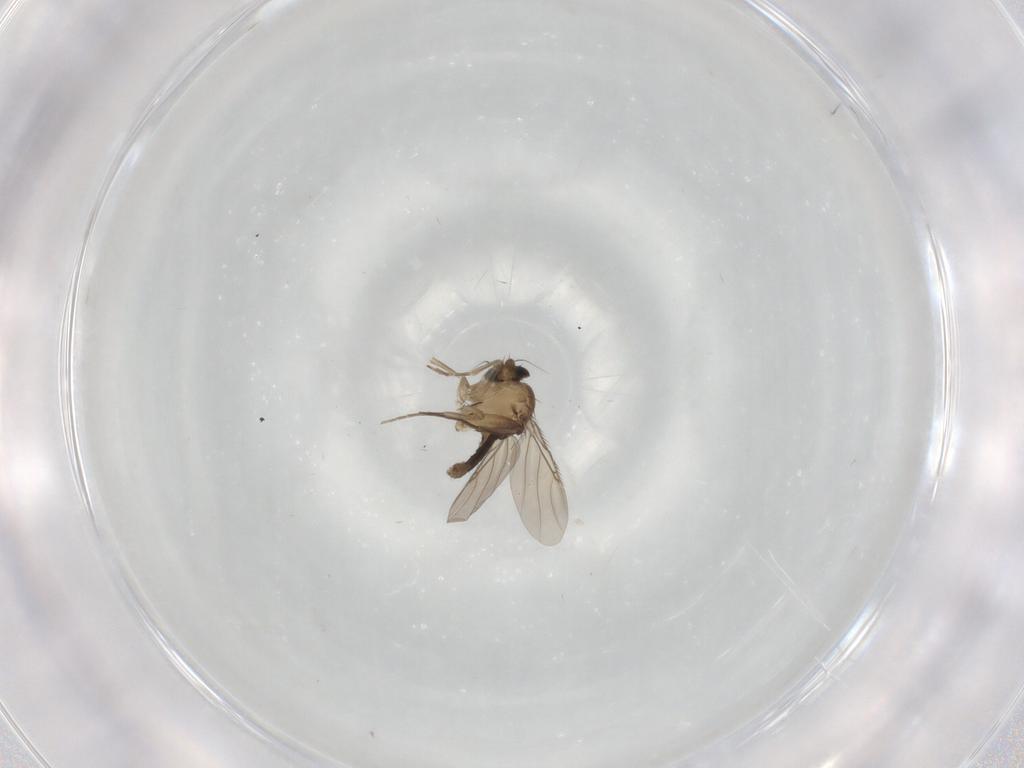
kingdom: Animalia
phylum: Arthropoda
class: Insecta
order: Diptera
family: Phoridae
